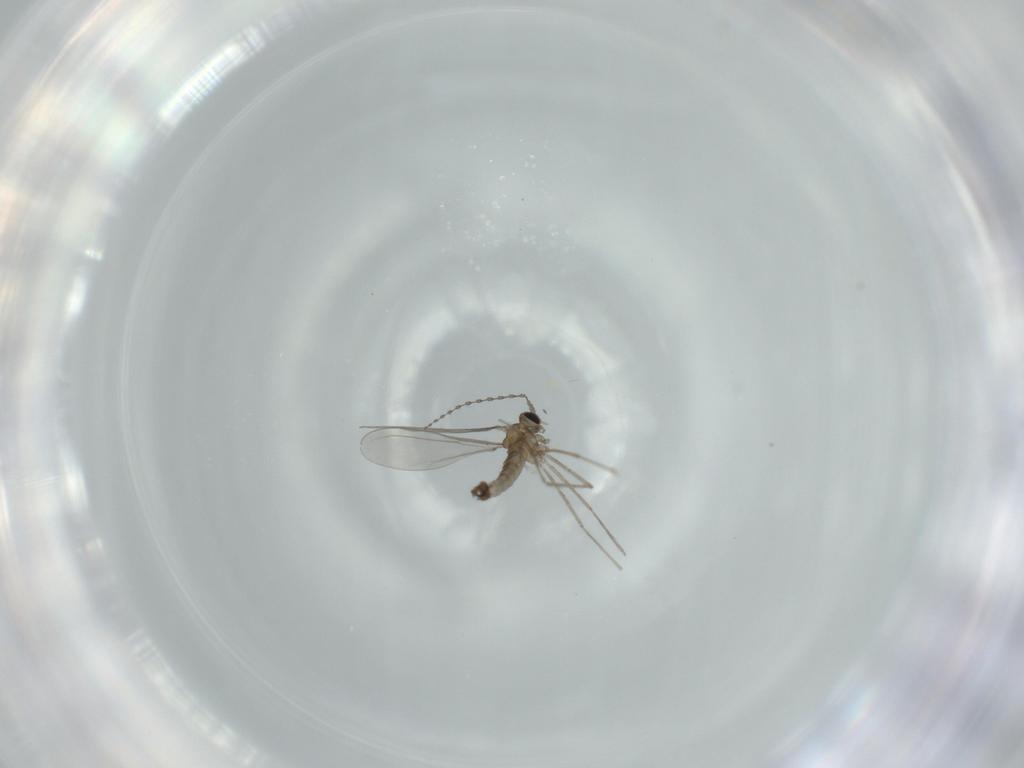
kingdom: Animalia
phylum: Arthropoda
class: Insecta
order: Diptera
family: Cecidomyiidae
